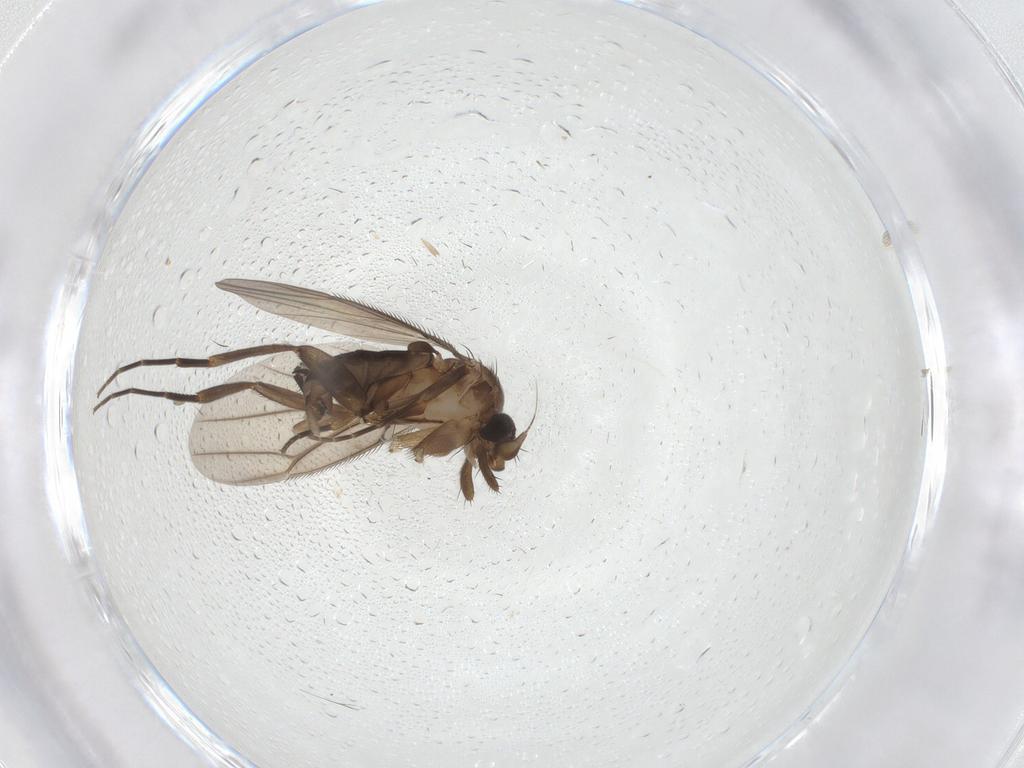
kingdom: Animalia
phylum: Arthropoda
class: Insecta
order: Diptera
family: Phoridae
